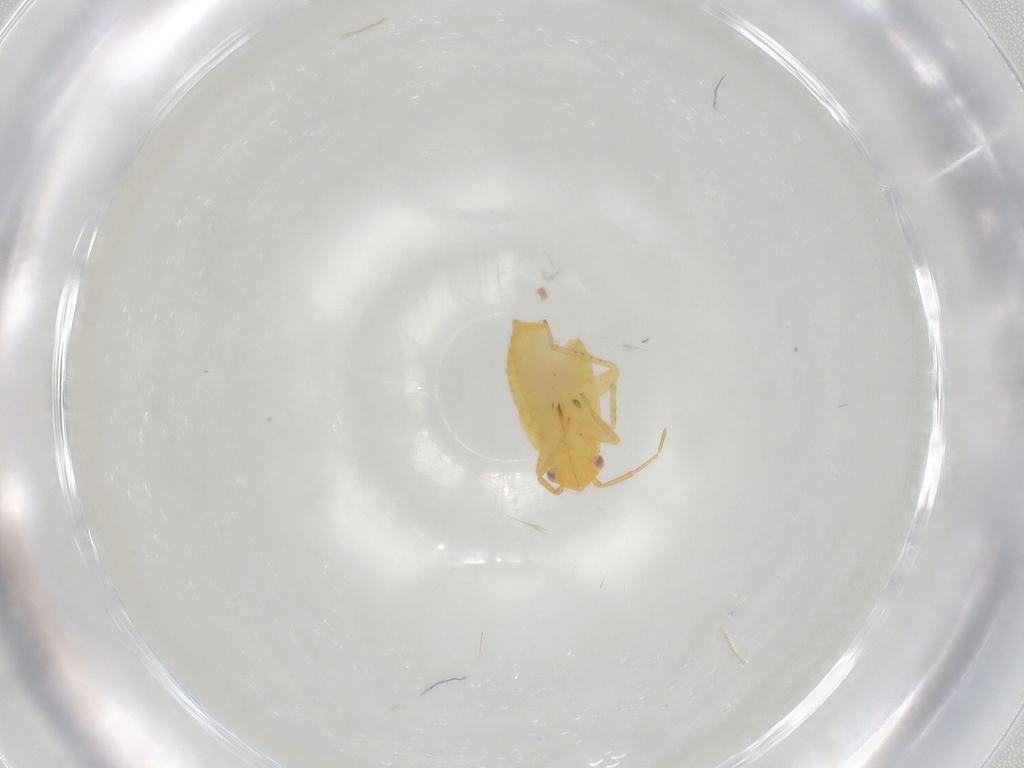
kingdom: Animalia
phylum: Arthropoda
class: Insecta
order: Thysanoptera
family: Aeolothripidae
